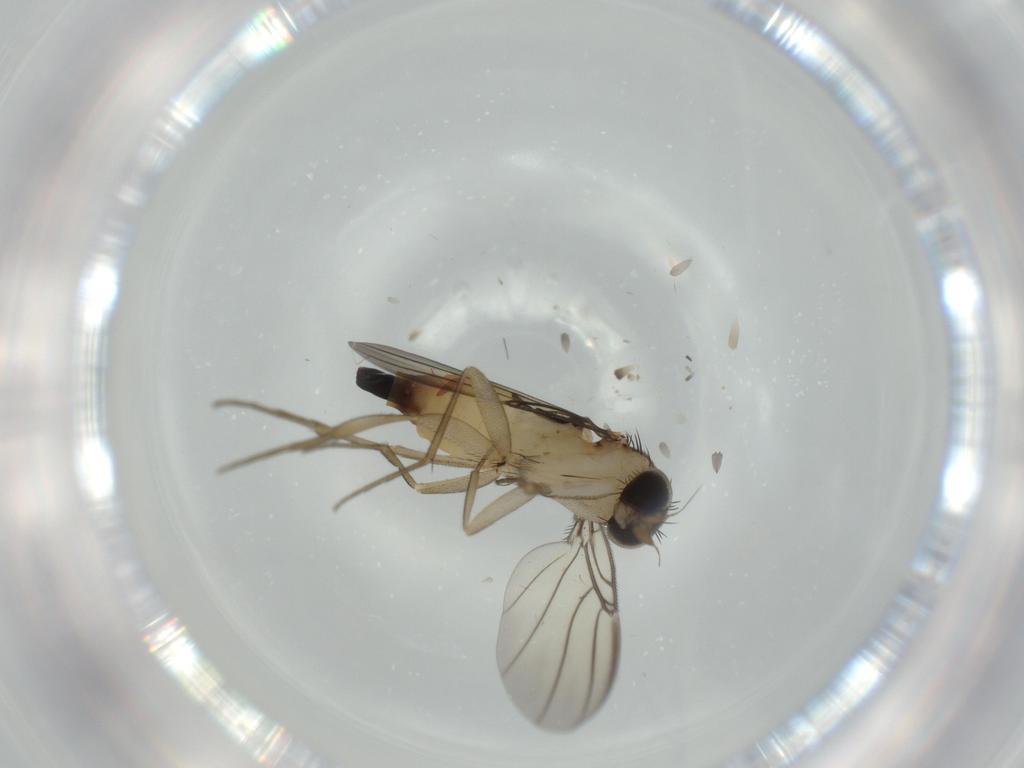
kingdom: Animalia
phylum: Arthropoda
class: Insecta
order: Diptera
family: Phoridae
